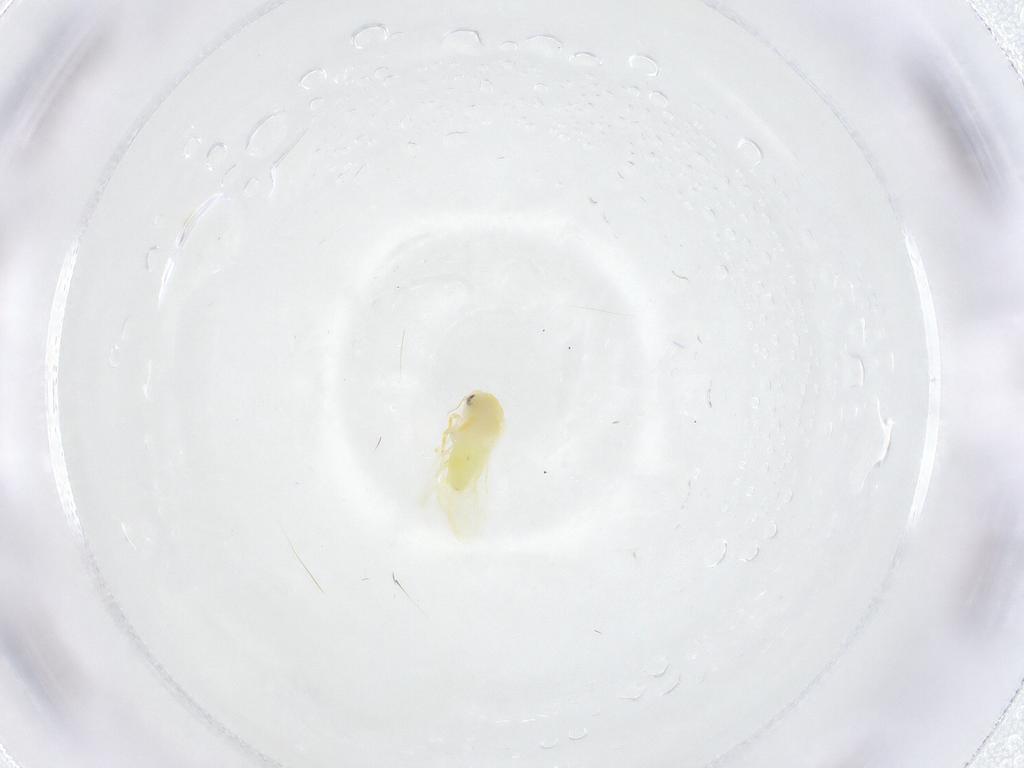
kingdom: Animalia
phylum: Arthropoda
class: Insecta
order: Hemiptera
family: Aleyrodidae
